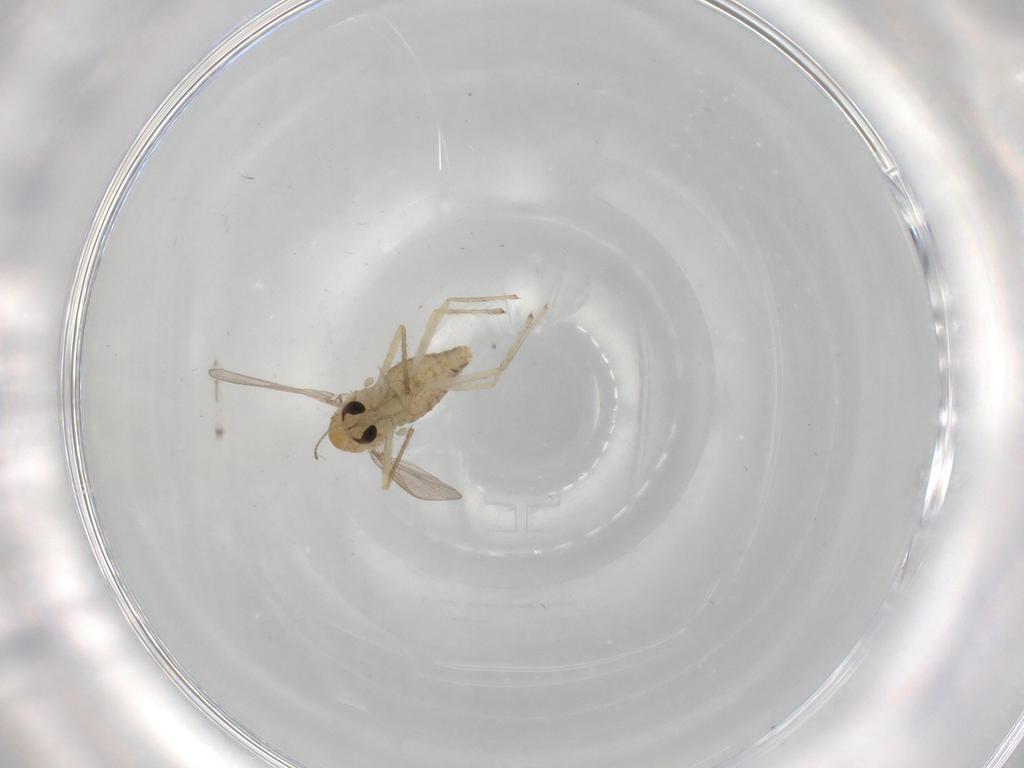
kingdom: Animalia
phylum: Arthropoda
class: Insecta
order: Diptera
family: Chironomidae
